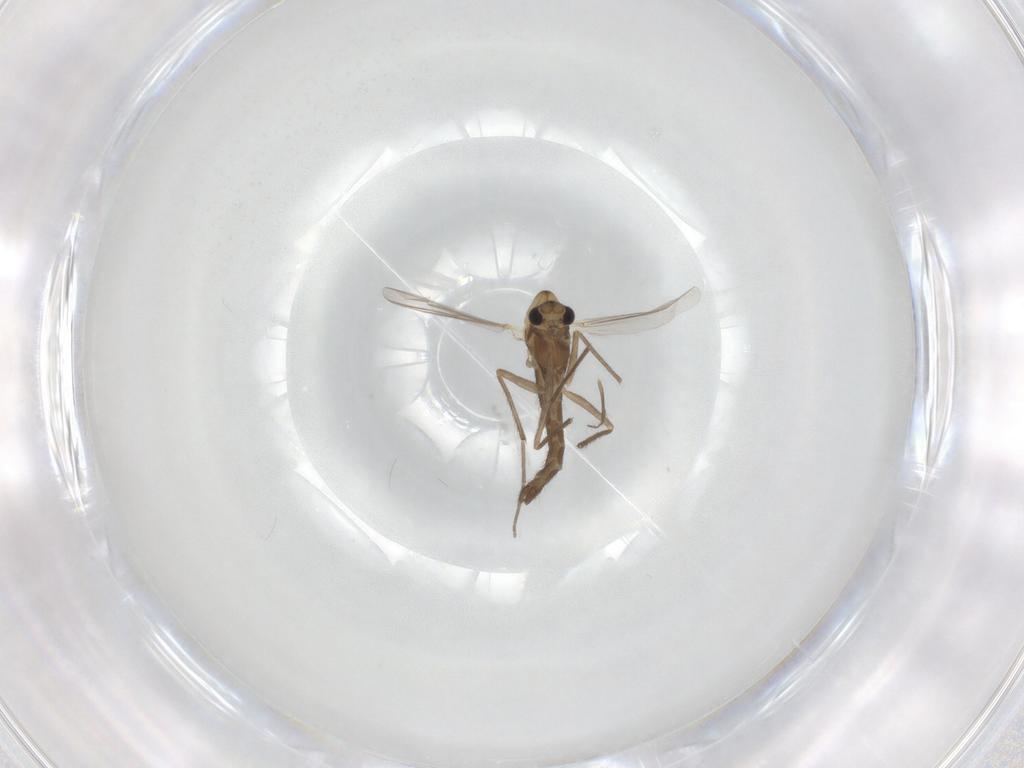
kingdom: Animalia
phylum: Arthropoda
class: Insecta
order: Diptera
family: Chironomidae
